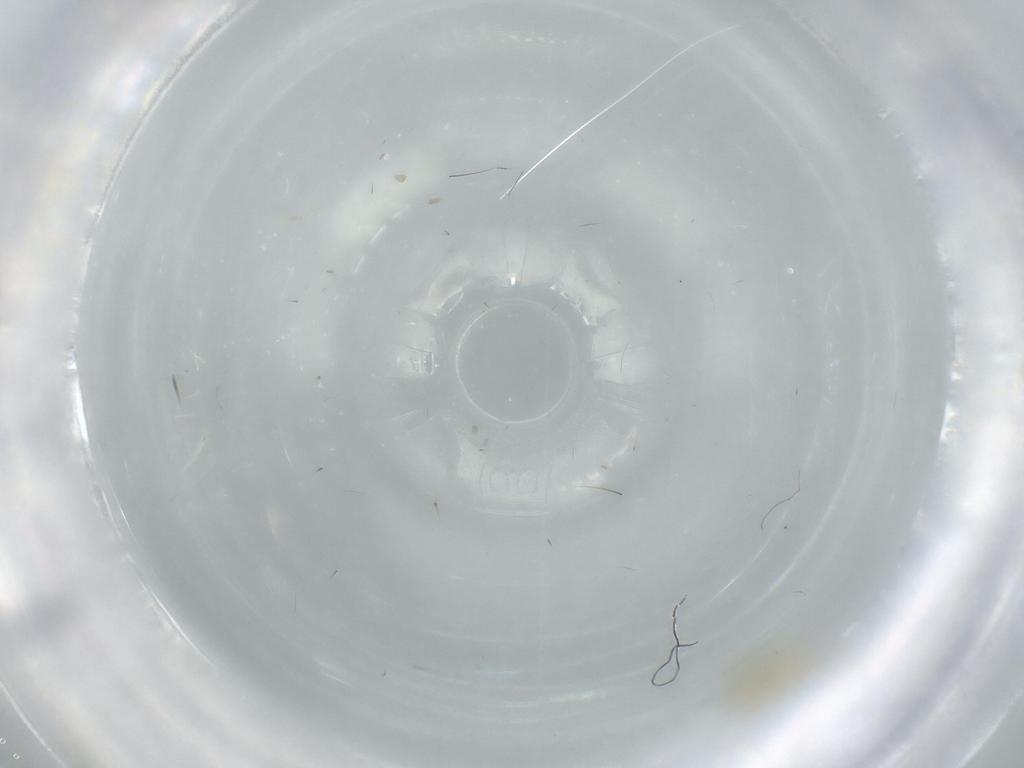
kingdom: Animalia
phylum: Arthropoda
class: Insecta
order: Diptera
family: Phoridae
